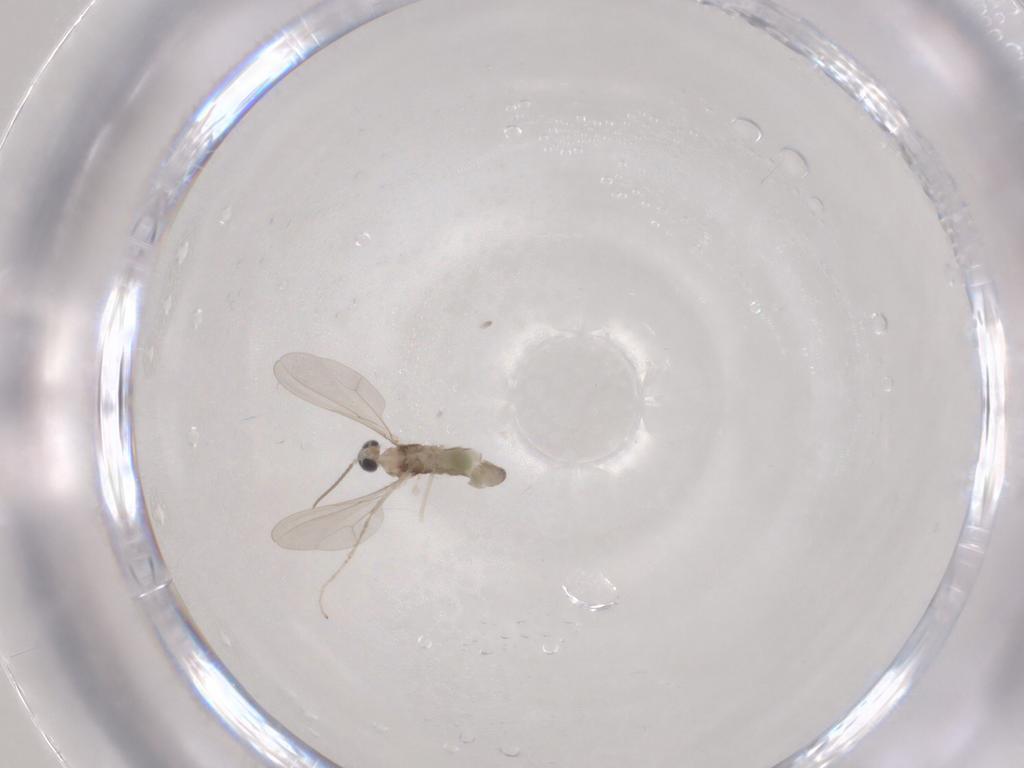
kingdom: Animalia
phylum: Arthropoda
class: Insecta
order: Diptera
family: Cecidomyiidae
